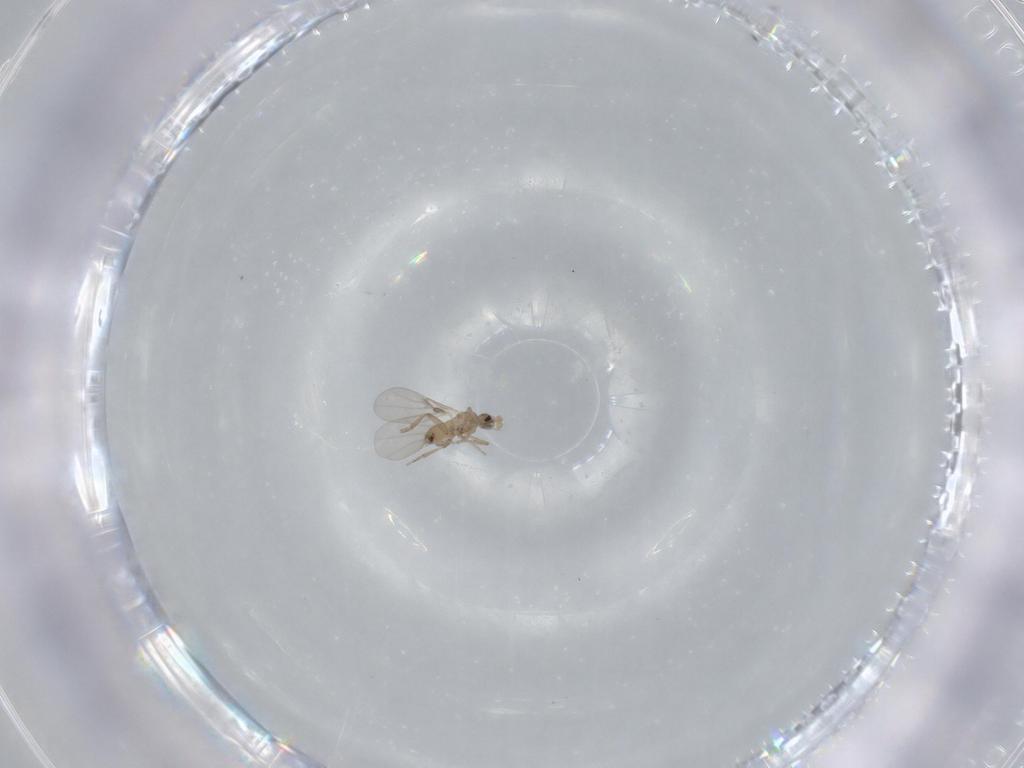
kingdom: Animalia
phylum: Arthropoda
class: Insecta
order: Diptera
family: Phoridae
